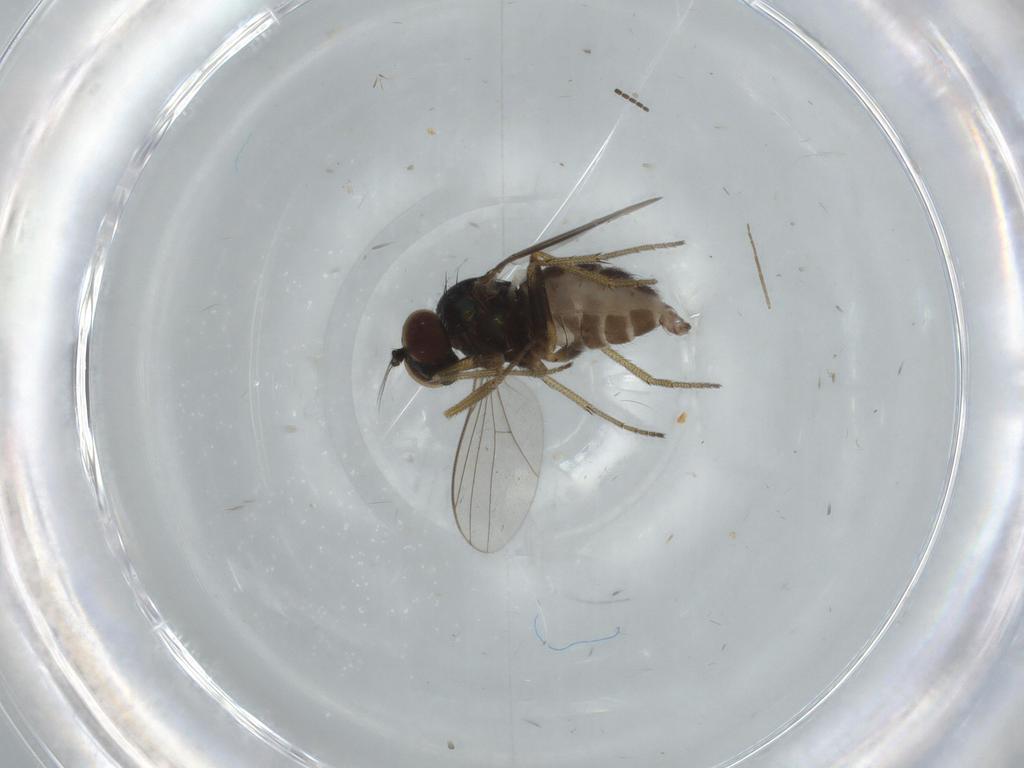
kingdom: Animalia
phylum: Arthropoda
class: Insecta
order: Diptera
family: Sciaridae
